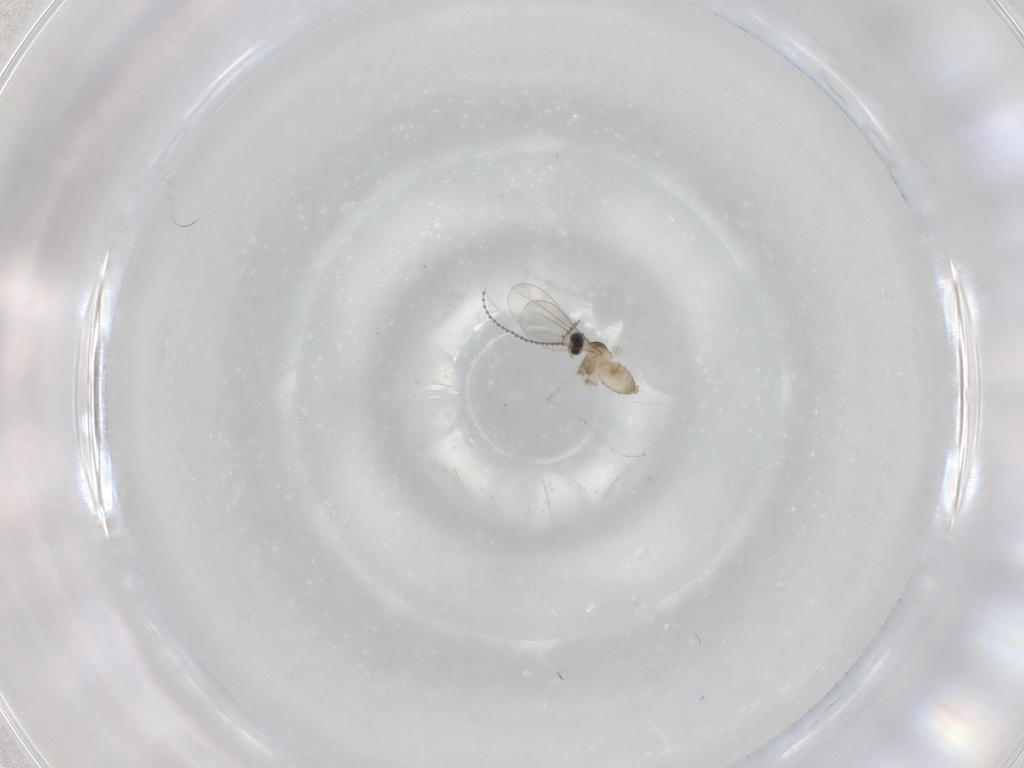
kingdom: Animalia
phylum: Arthropoda
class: Insecta
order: Diptera
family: Cecidomyiidae
